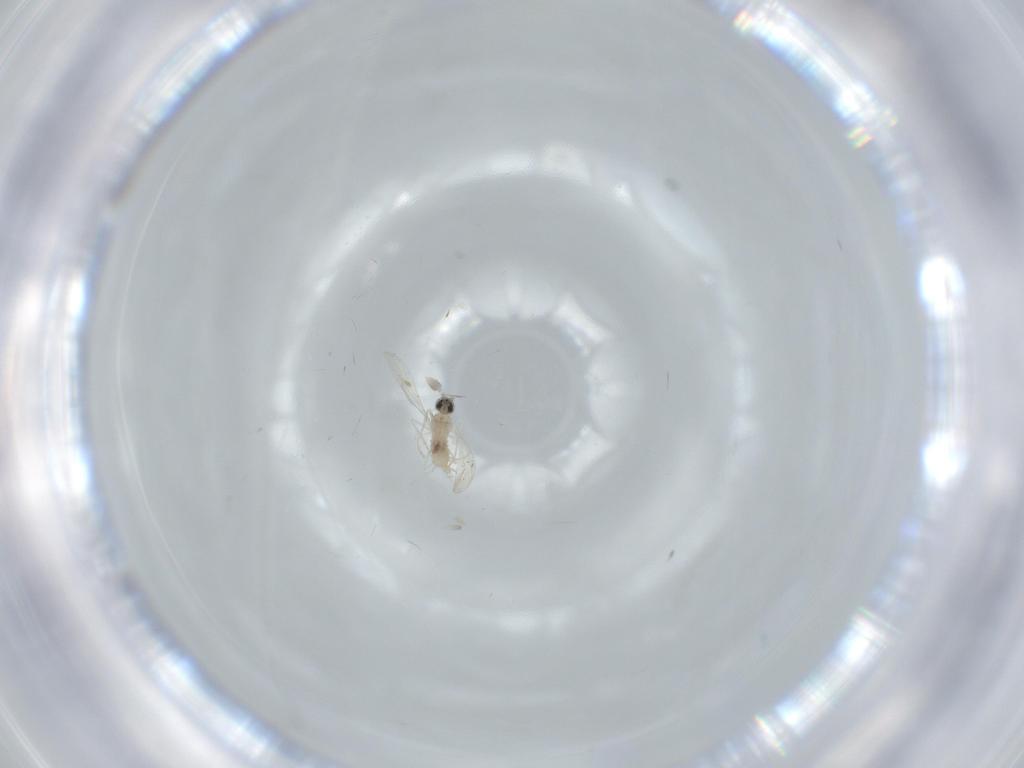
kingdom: Animalia
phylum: Arthropoda
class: Insecta
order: Diptera
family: Cecidomyiidae
